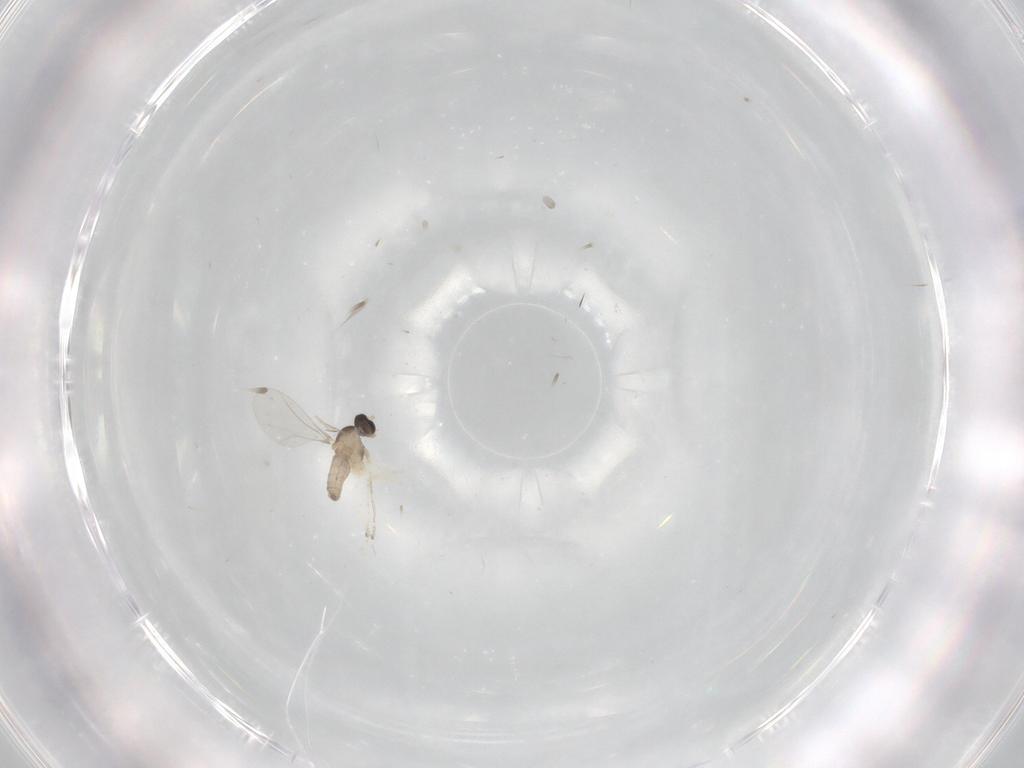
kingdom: Animalia
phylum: Arthropoda
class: Insecta
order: Diptera
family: Cecidomyiidae
